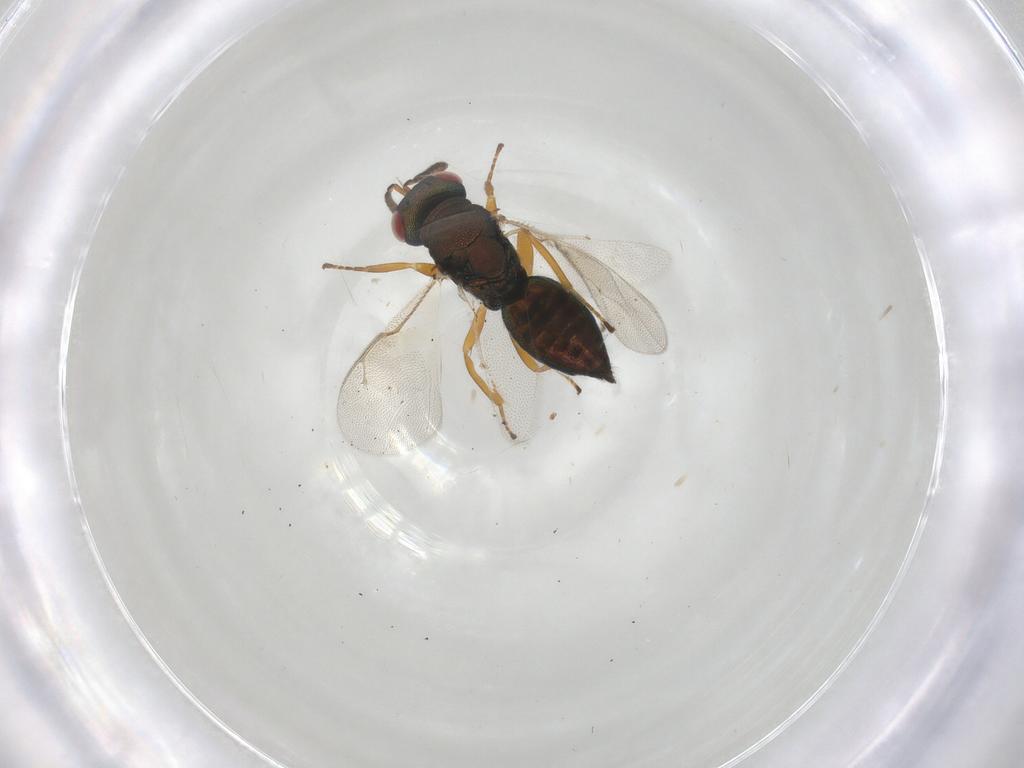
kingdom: Animalia
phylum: Arthropoda
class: Insecta
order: Hymenoptera
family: Pteromalidae
